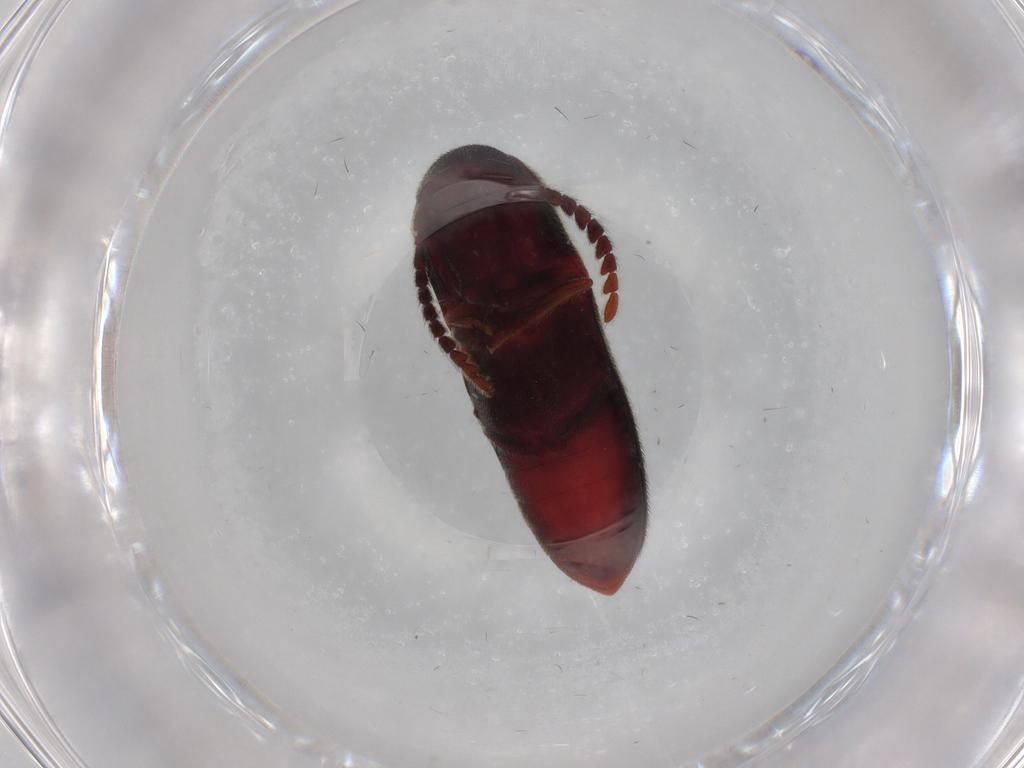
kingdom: Animalia
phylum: Arthropoda
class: Insecta
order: Coleoptera
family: Eucnemidae
